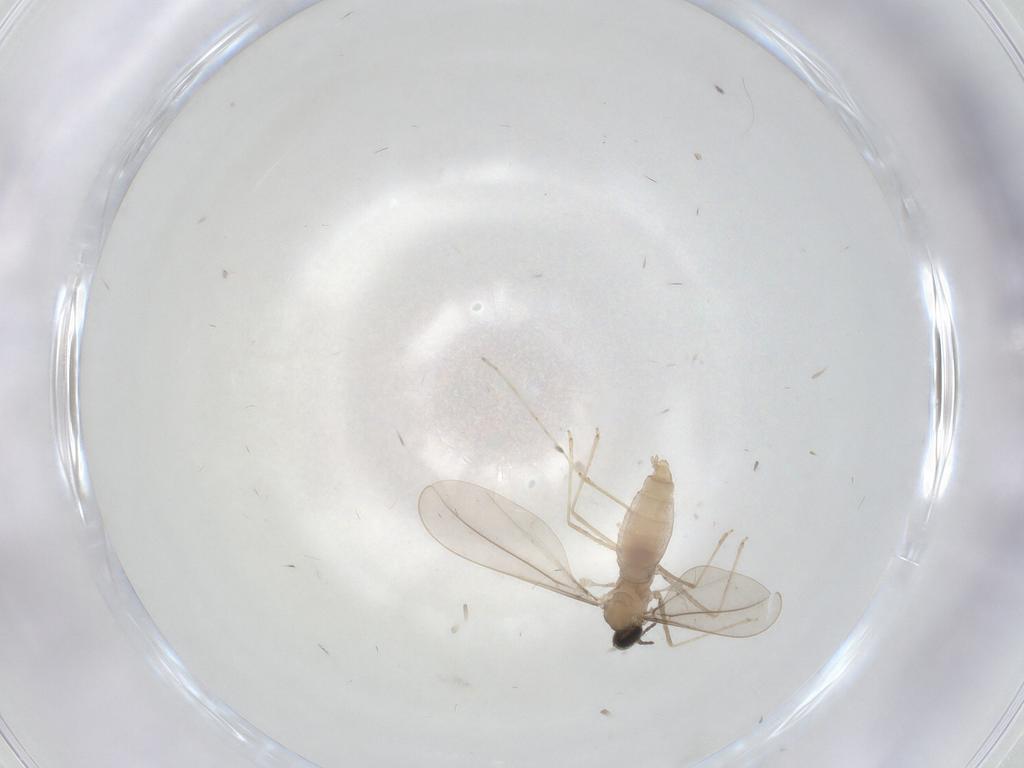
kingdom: Animalia
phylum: Arthropoda
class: Insecta
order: Diptera
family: Cecidomyiidae
